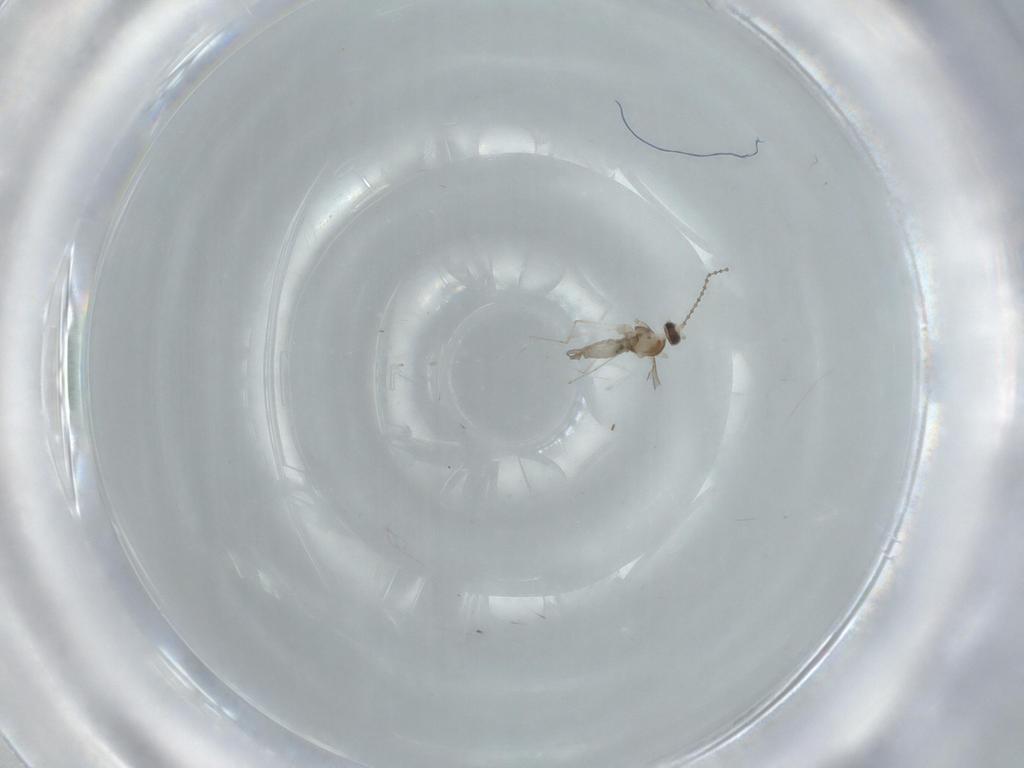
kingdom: Animalia
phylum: Arthropoda
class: Insecta
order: Diptera
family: Cecidomyiidae
